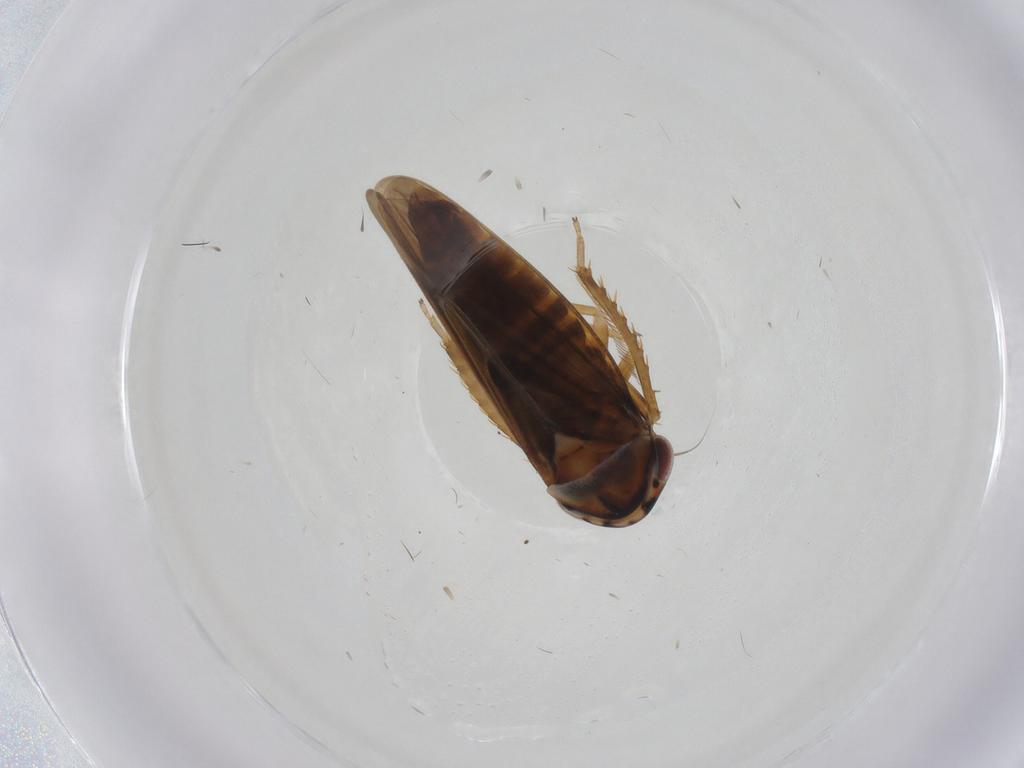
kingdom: Animalia
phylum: Arthropoda
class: Insecta
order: Hemiptera
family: Cicadellidae
